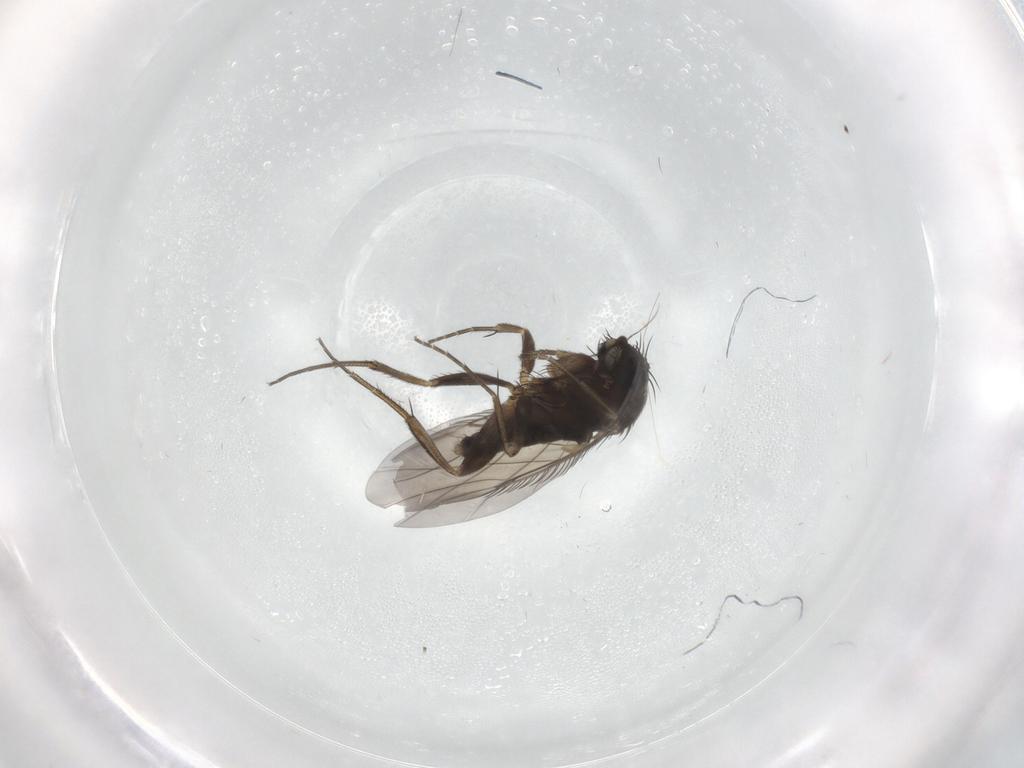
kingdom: Animalia
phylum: Arthropoda
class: Insecta
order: Diptera
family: Phoridae
